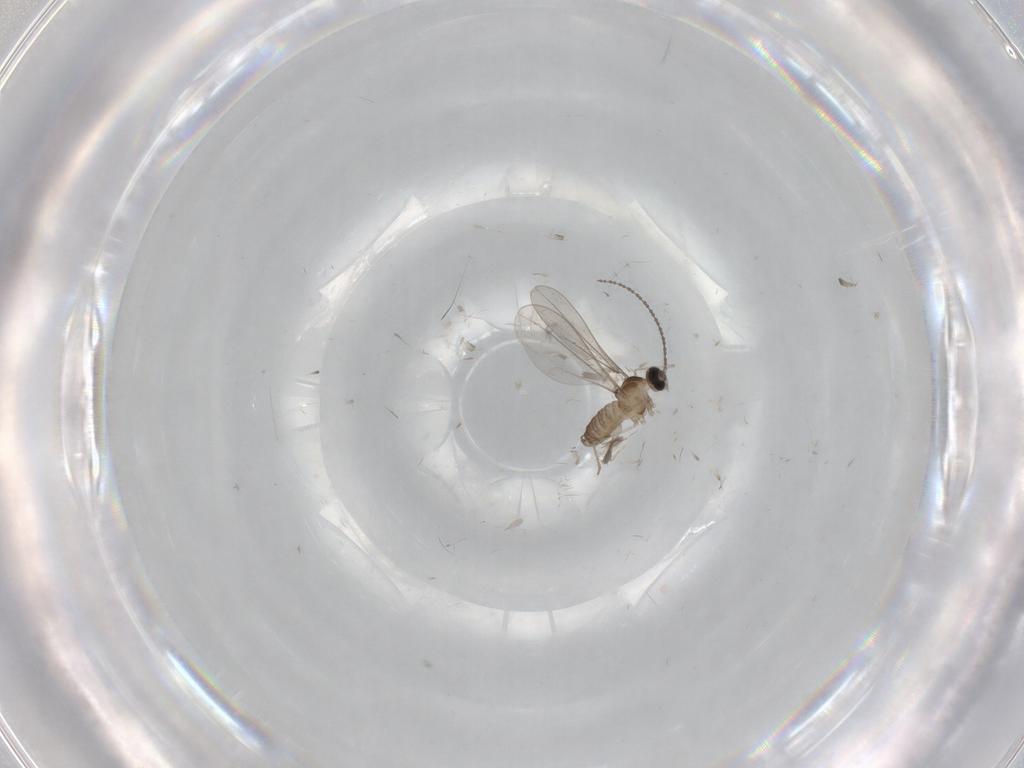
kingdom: Animalia
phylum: Arthropoda
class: Insecta
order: Diptera
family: Cecidomyiidae
